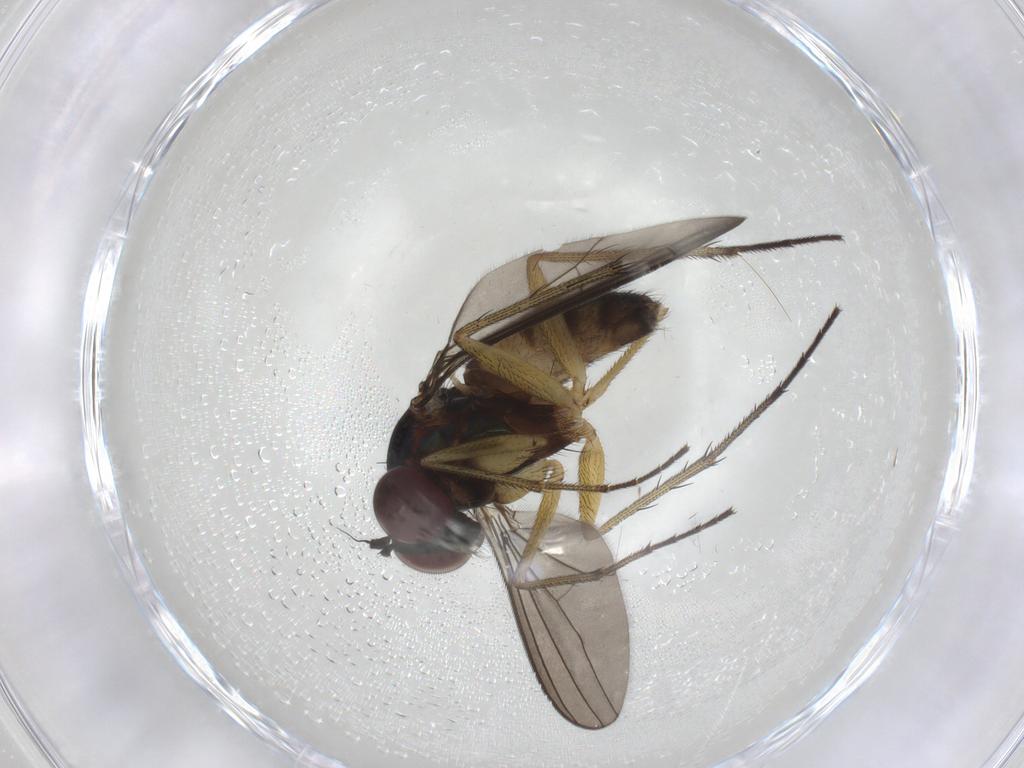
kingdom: Animalia
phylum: Arthropoda
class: Insecta
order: Diptera
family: Dolichopodidae
